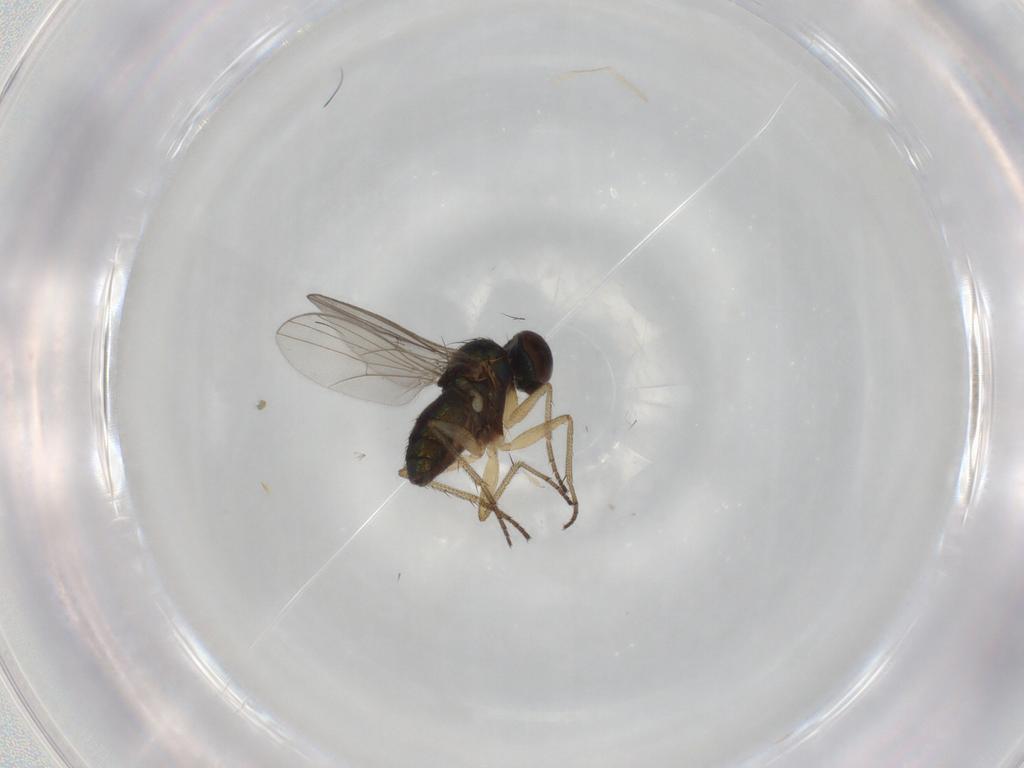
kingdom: Animalia
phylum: Arthropoda
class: Insecta
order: Diptera
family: Dolichopodidae
